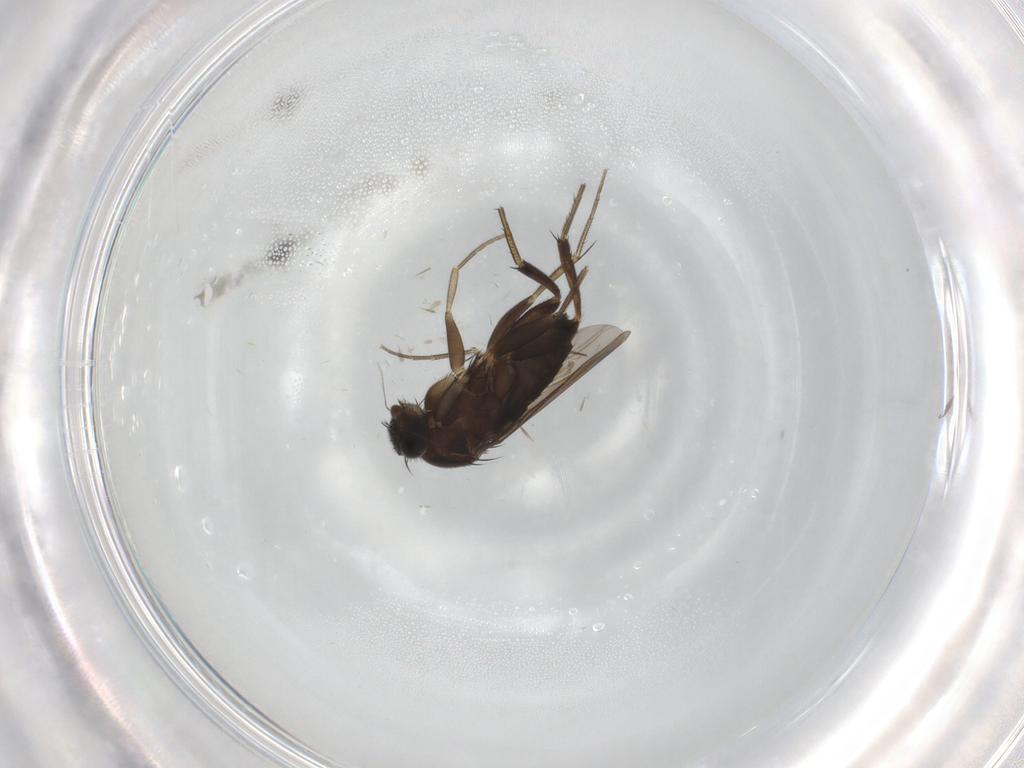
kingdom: Animalia
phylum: Arthropoda
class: Insecta
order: Diptera
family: Phoridae
